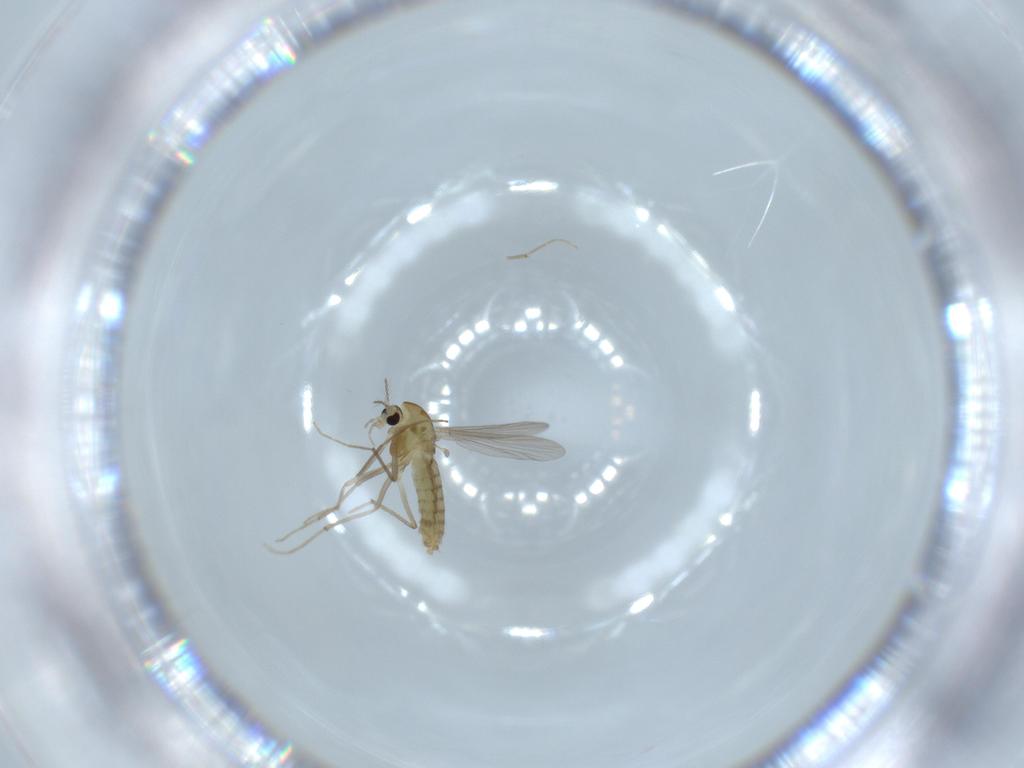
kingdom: Animalia
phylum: Arthropoda
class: Insecta
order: Diptera
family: Chironomidae
